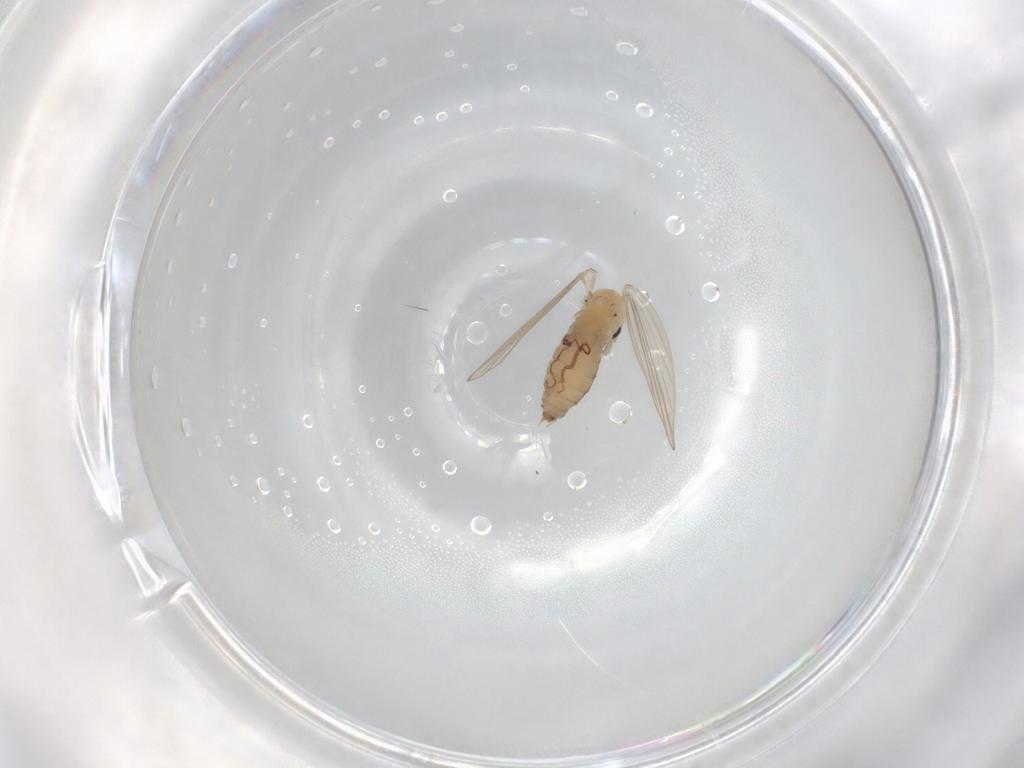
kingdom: Animalia
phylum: Arthropoda
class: Insecta
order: Diptera
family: Psychodidae
